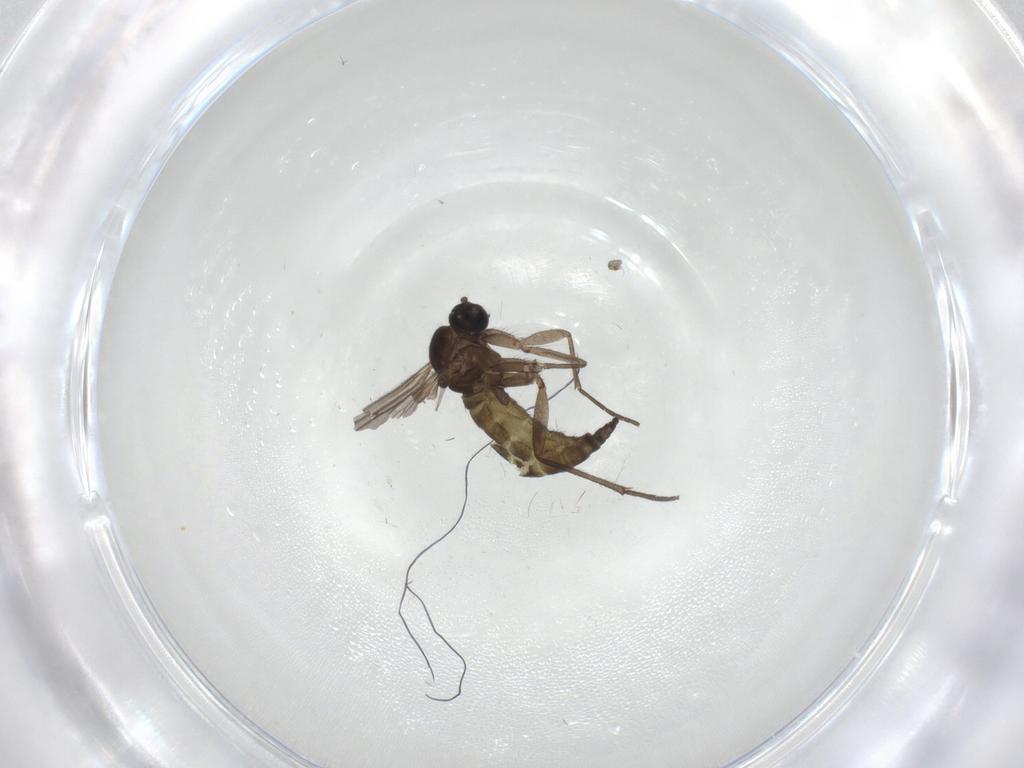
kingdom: Animalia
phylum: Arthropoda
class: Insecta
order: Diptera
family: Sciaridae
